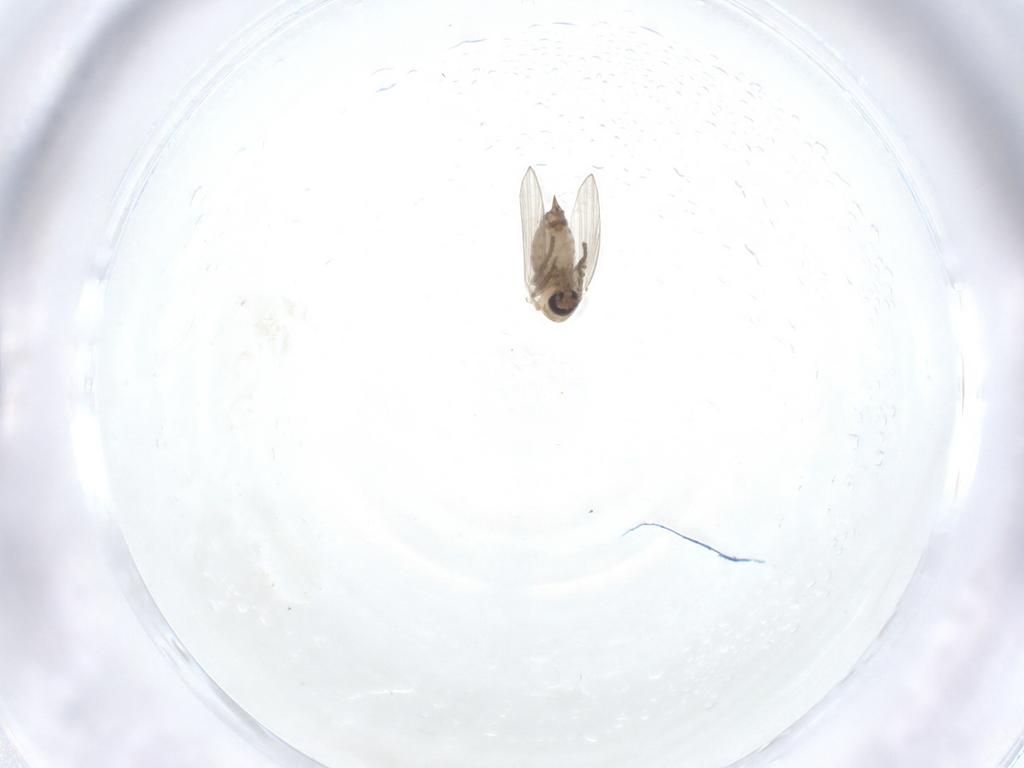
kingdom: Animalia
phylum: Arthropoda
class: Insecta
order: Diptera
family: Psychodidae
